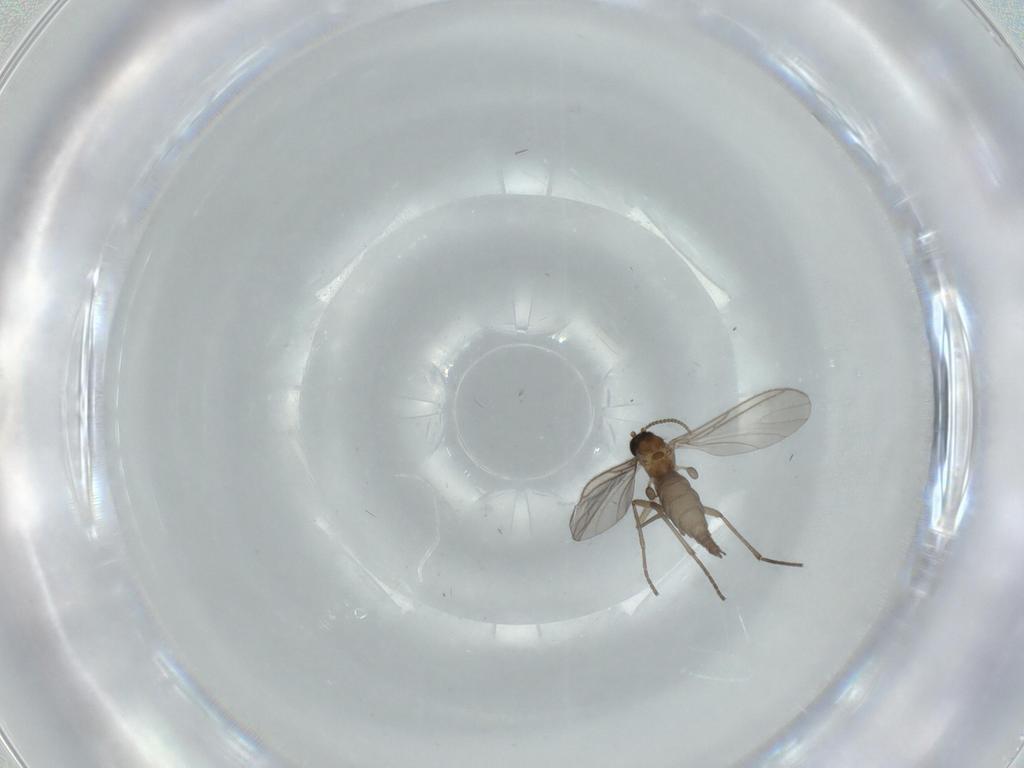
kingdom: Animalia
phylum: Arthropoda
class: Insecta
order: Diptera
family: Sciaridae
